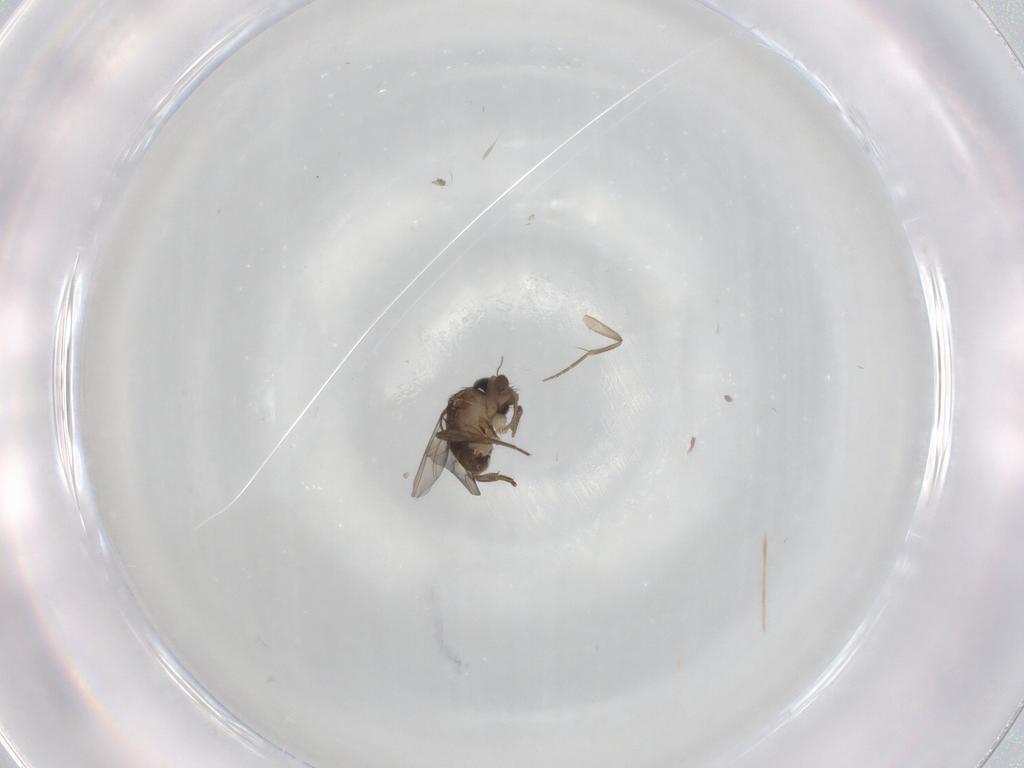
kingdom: Animalia
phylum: Arthropoda
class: Insecta
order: Diptera
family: Phoridae
